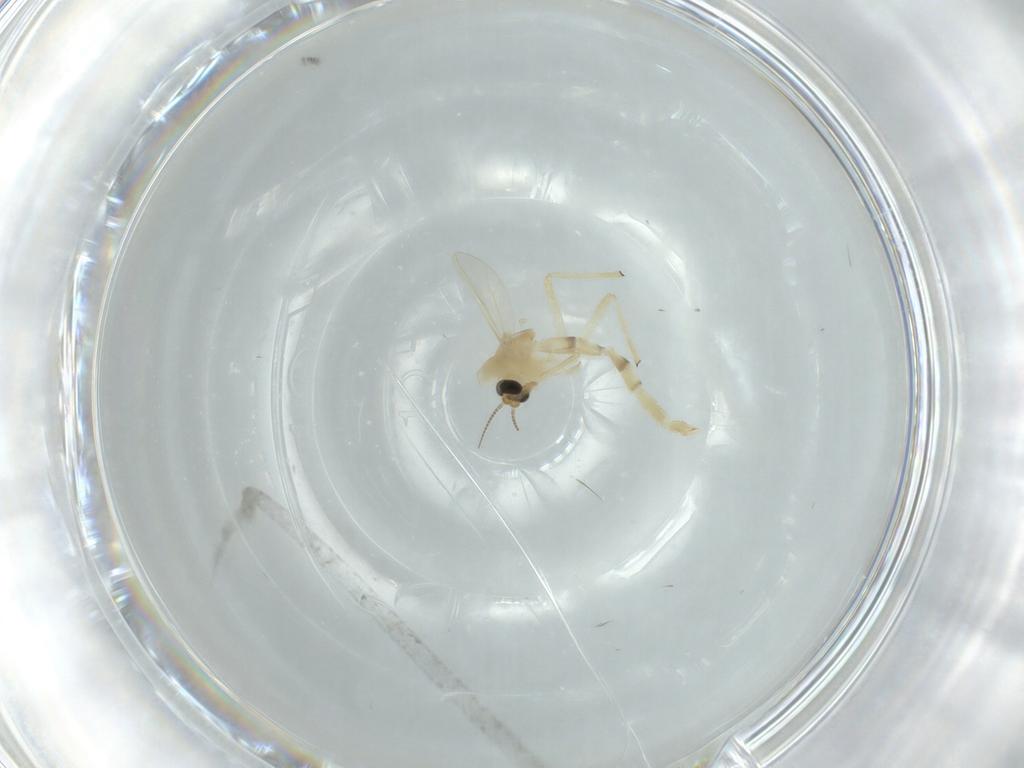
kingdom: Animalia
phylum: Arthropoda
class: Insecta
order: Diptera
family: Chironomidae
